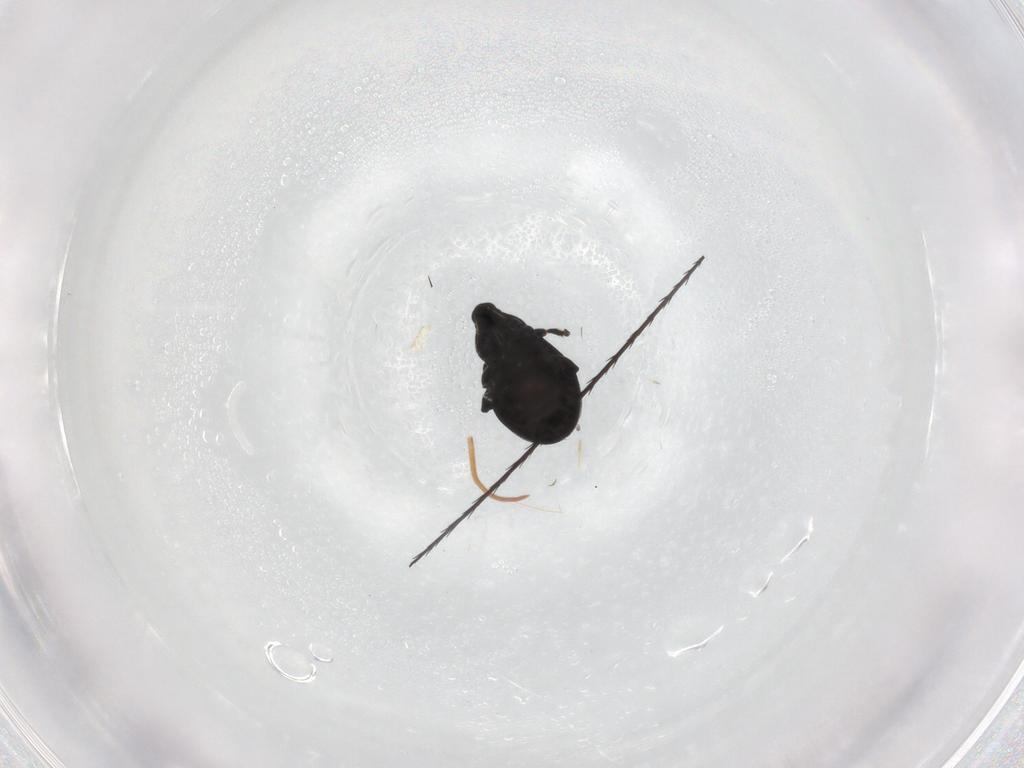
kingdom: Animalia
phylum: Arthropoda
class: Insecta
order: Coleoptera
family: Curculionidae
